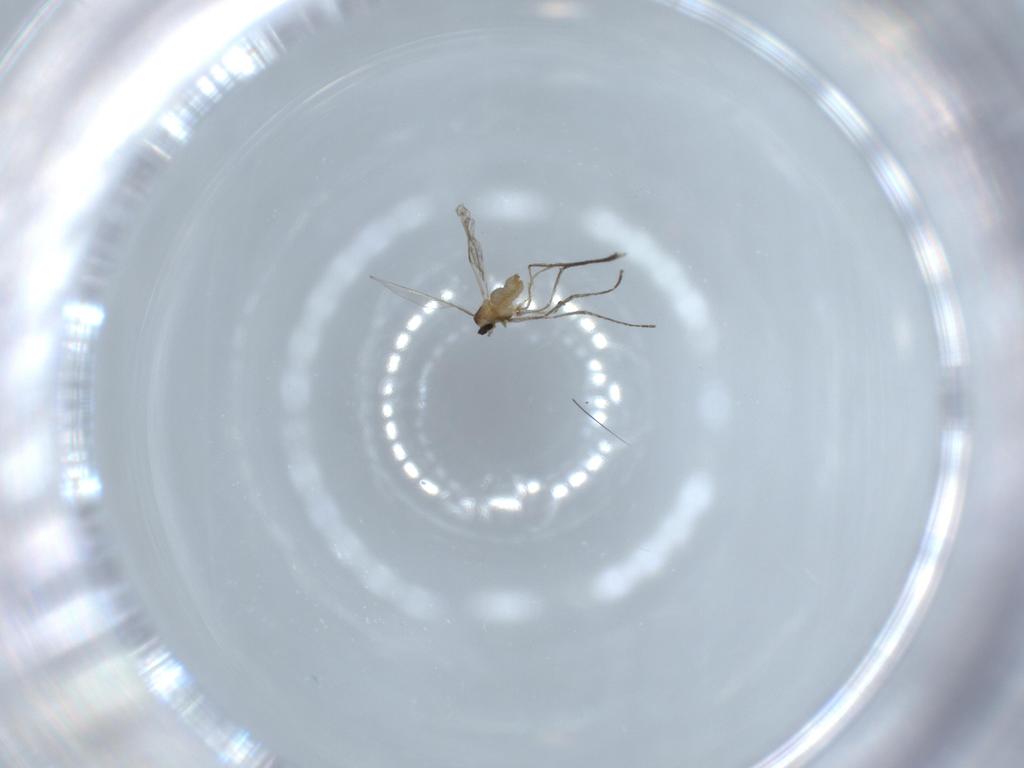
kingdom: Animalia
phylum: Arthropoda
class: Insecta
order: Diptera
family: Cecidomyiidae
